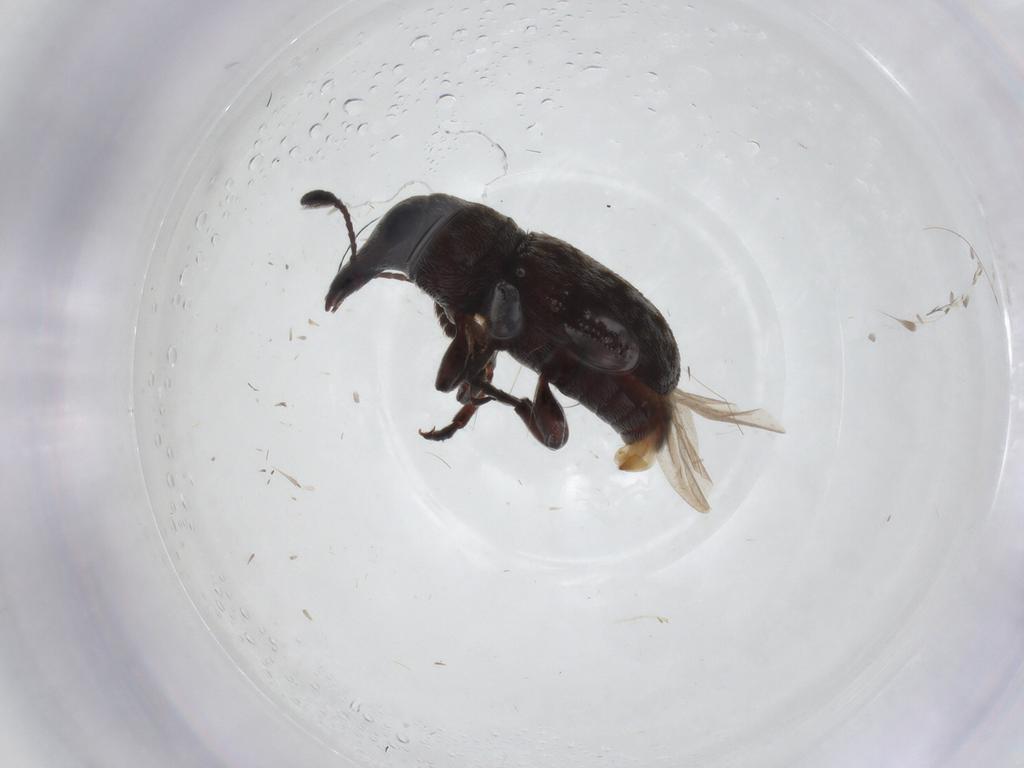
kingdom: Animalia
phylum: Arthropoda
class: Insecta
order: Coleoptera
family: Anthribidae
